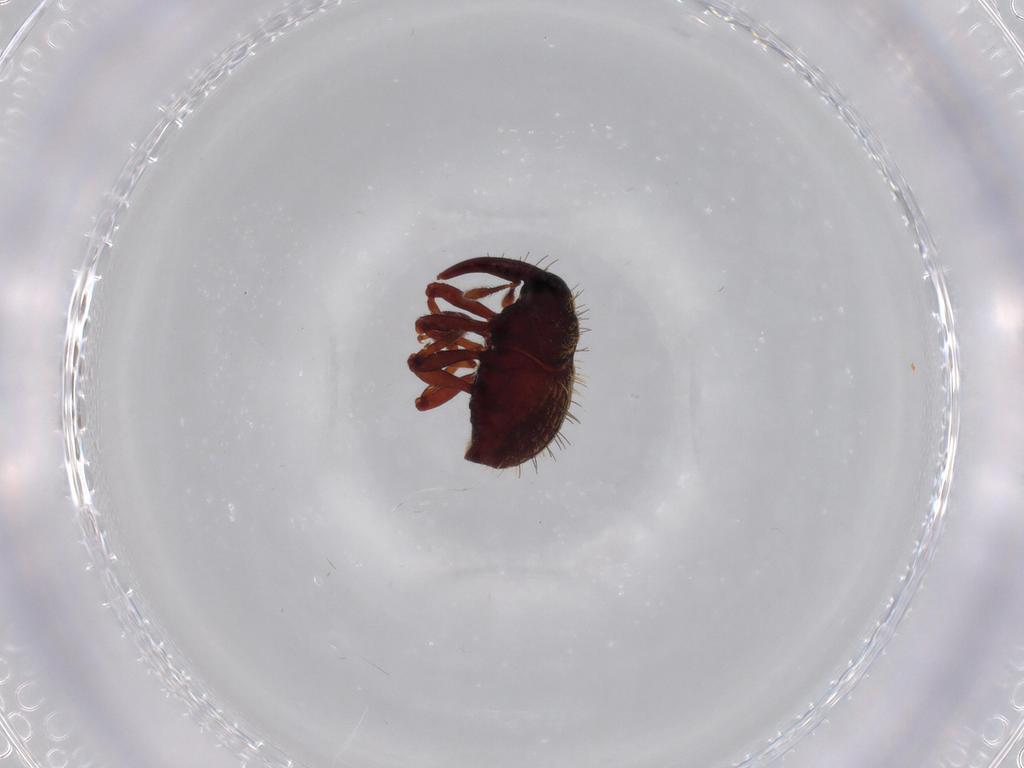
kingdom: Animalia
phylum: Arthropoda
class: Insecta
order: Coleoptera
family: Curculionidae
